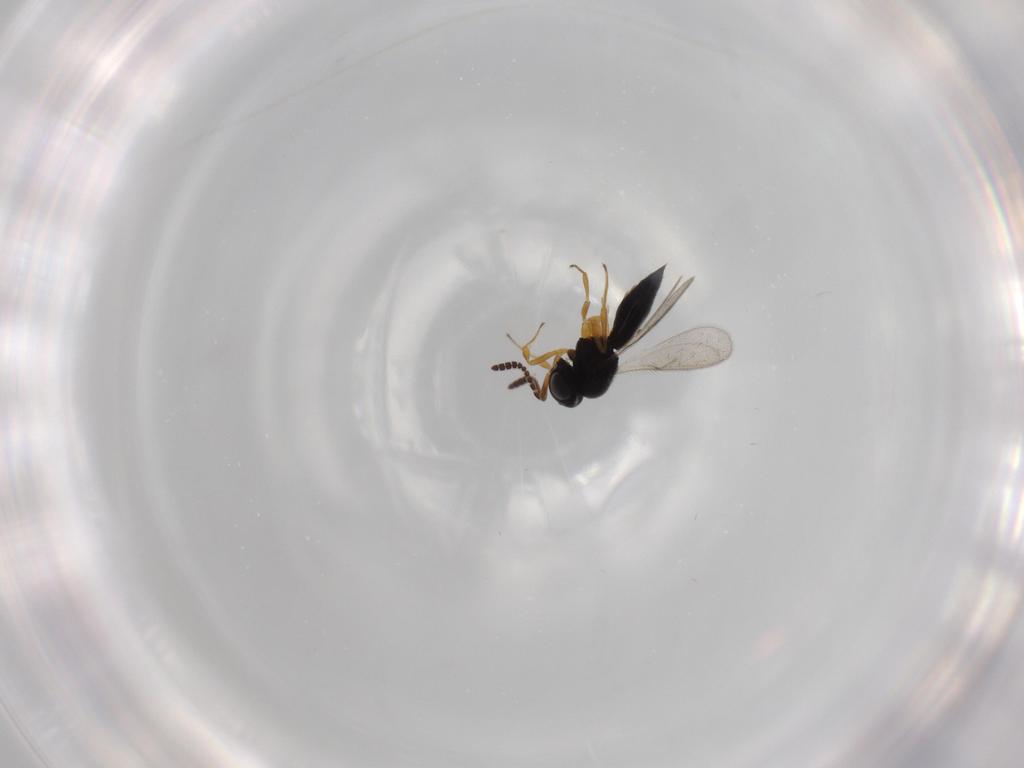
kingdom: Animalia
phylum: Arthropoda
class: Insecta
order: Hymenoptera
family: Scelionidae
